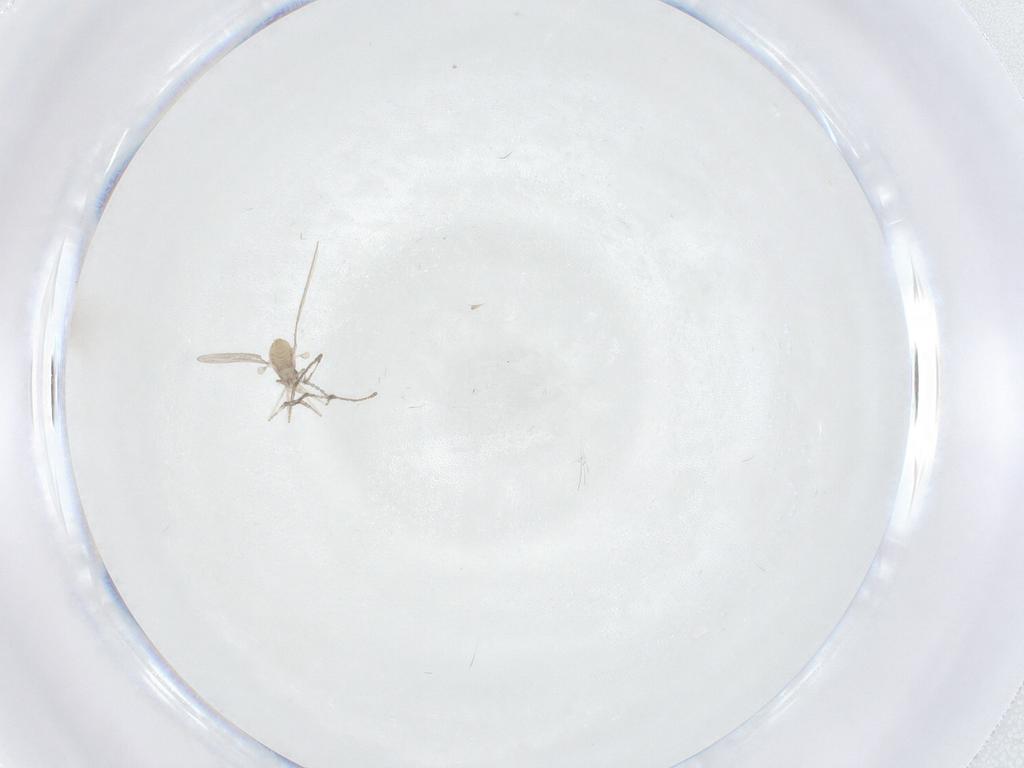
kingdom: Animalia
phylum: Arthropoda
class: Insecta
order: Diptera
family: Cecidomyiidae
